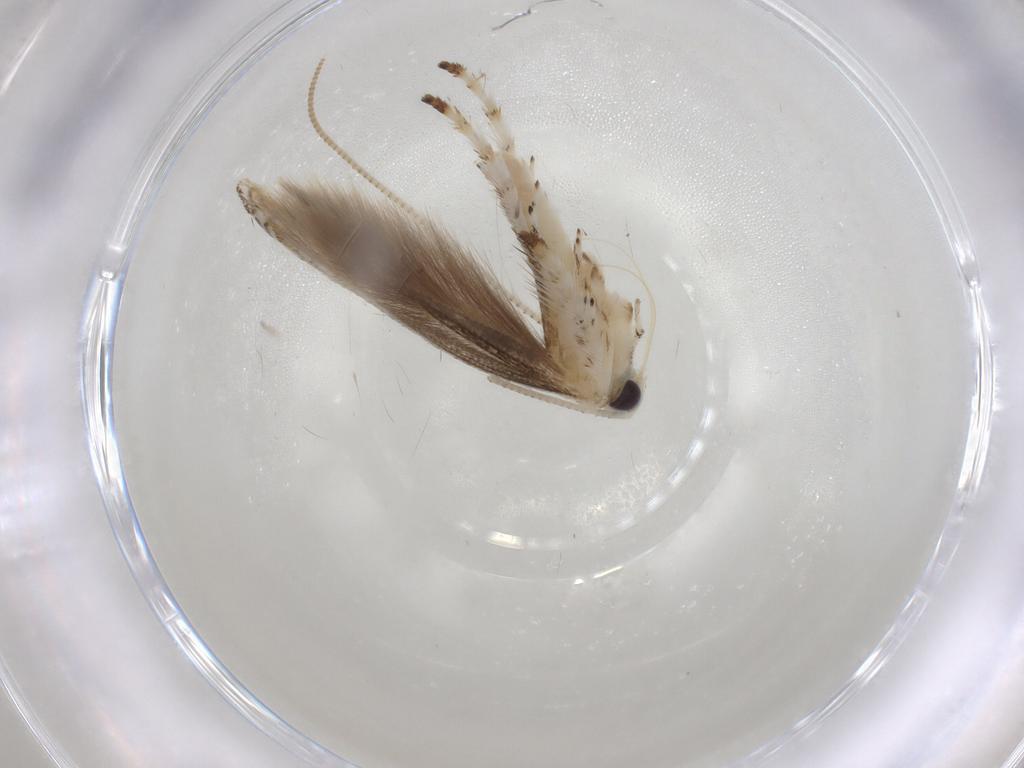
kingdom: Animalia
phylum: Arthropoda
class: Insecta
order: Lepidoptera
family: Gracillariidae
